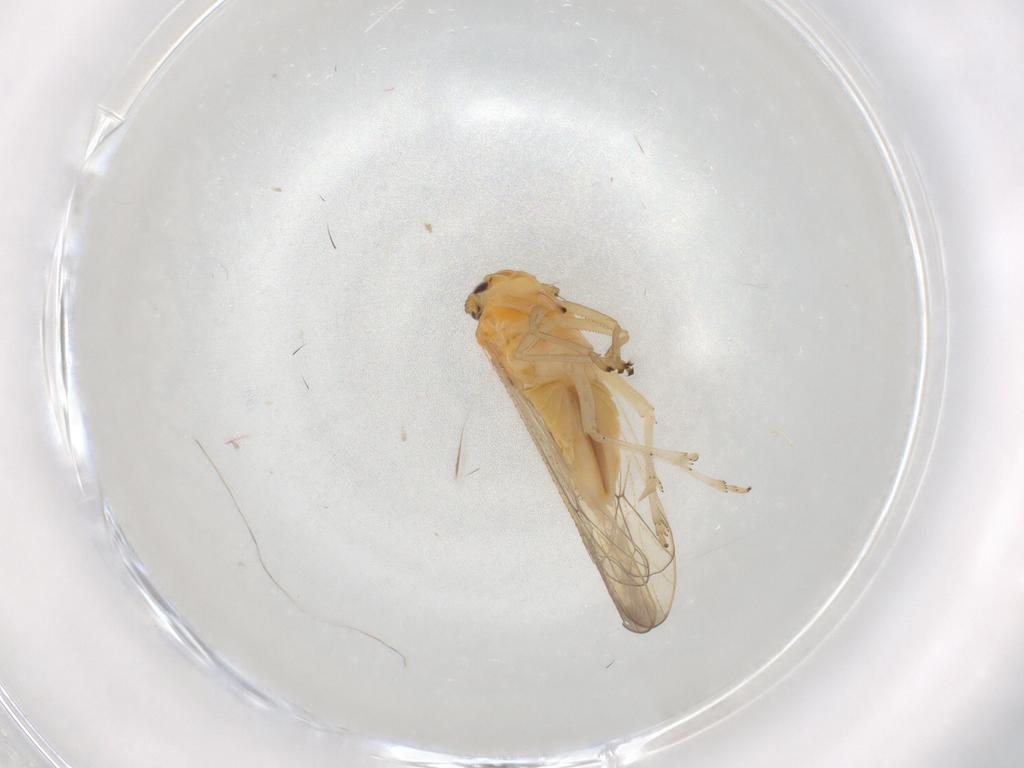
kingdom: Animalia
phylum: Arthropoda
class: Insecta
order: Hemiptera
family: Delphacidae
